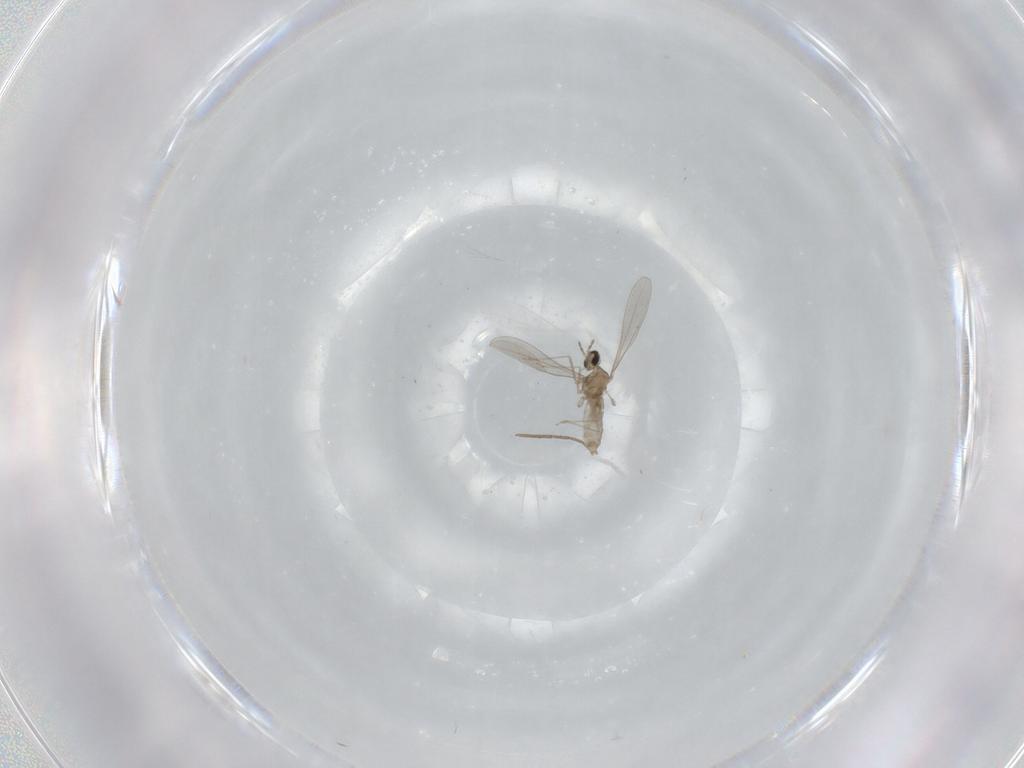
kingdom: Animalia
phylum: Arthropoda
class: Insecta
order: Diptera
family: Cecidomyiidae
